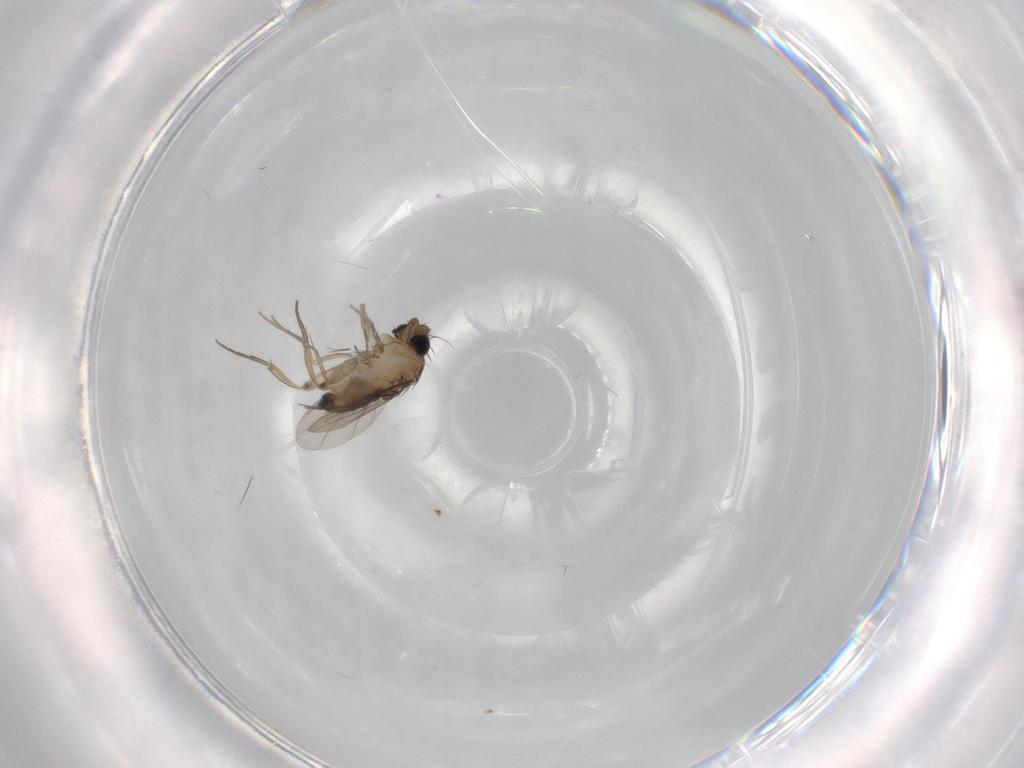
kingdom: Animalia
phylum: Arthropoda
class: Insecta
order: Diptera
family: Phoridae
